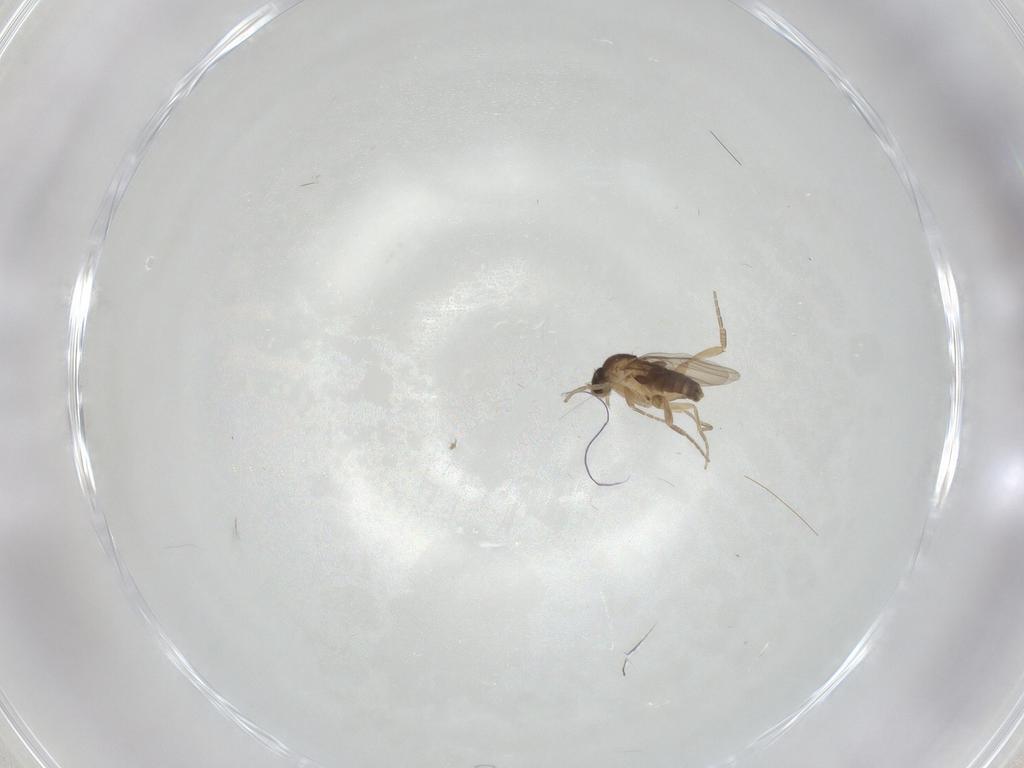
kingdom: Animalia
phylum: Arthropoda
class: Insecta
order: Diptera
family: Phoridae
